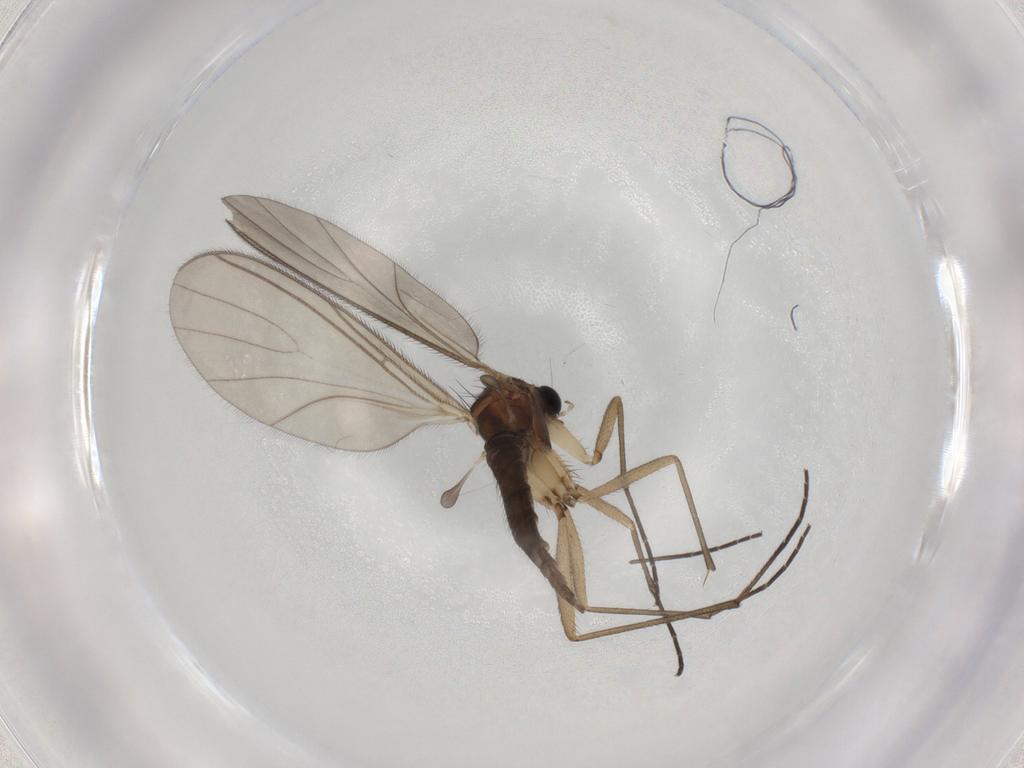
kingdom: Animalia
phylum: Arthropoda
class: Insecta
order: Diptera
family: Sciaridae
